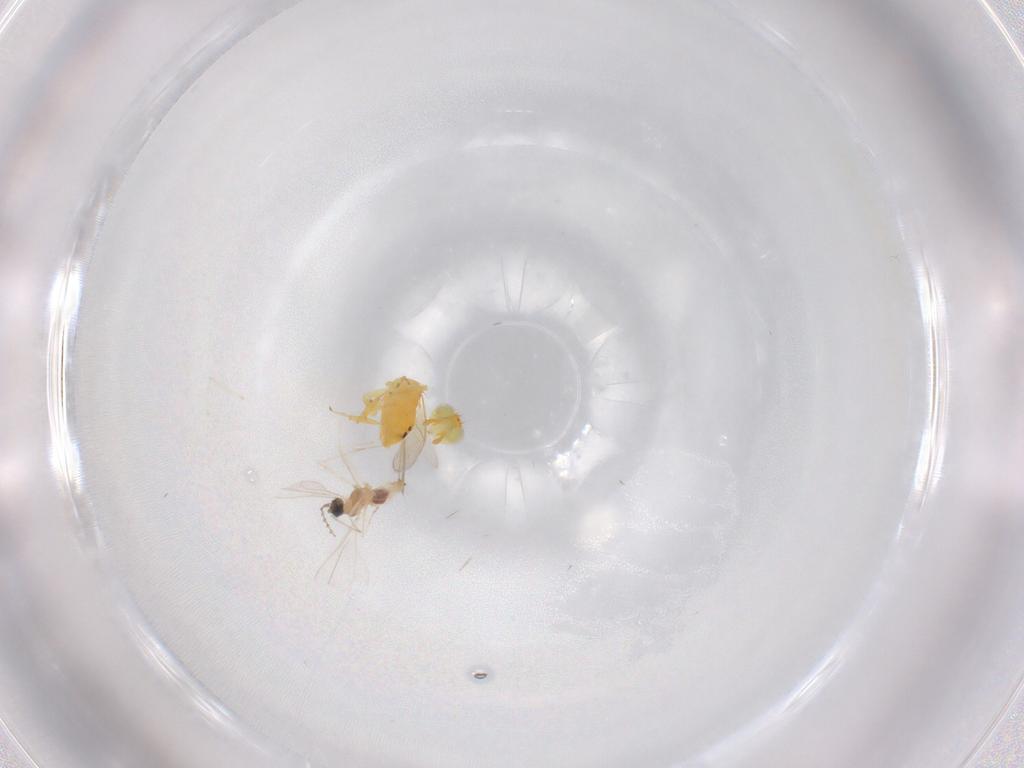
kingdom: Animalia
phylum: Arthropoda
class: Insecta
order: Diptera
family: Cecidomyiidae
